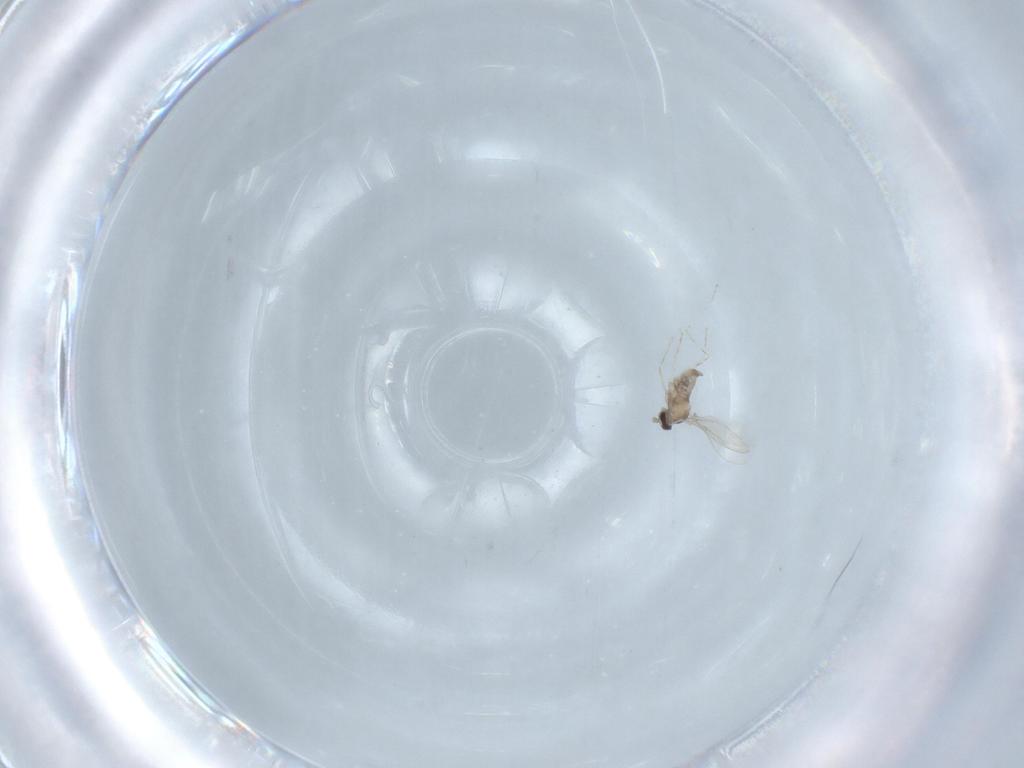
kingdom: Animalia
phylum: Arthropoda
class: Insecta
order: Diptera
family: Cecidomyiidae
